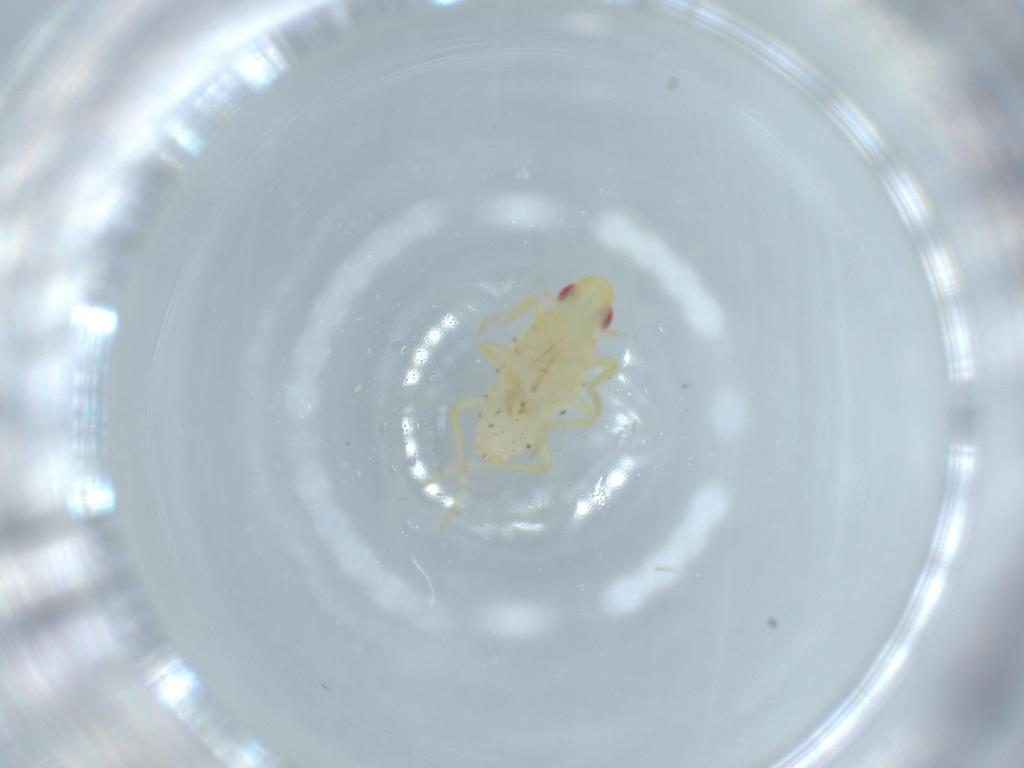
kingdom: Animalia
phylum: Arthropoda
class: Insecta
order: Hemiptera
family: Tropiduchidae
